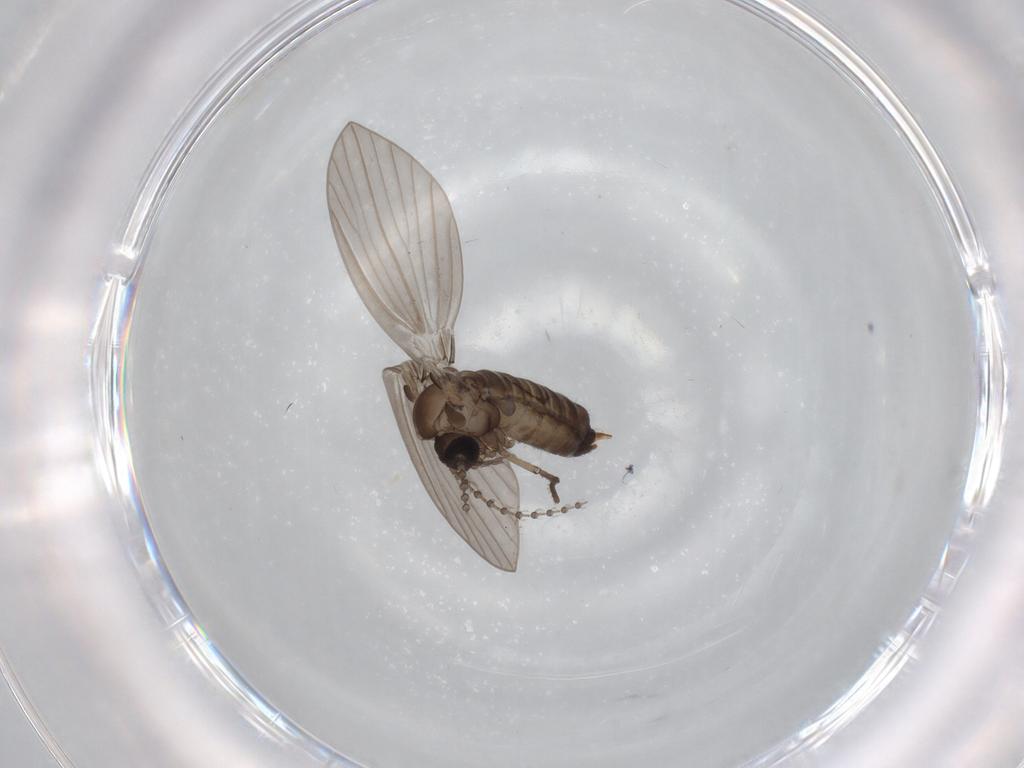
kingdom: Animalia
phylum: Arthropoda
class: Insecta
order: Diptera
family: Psychodidae
